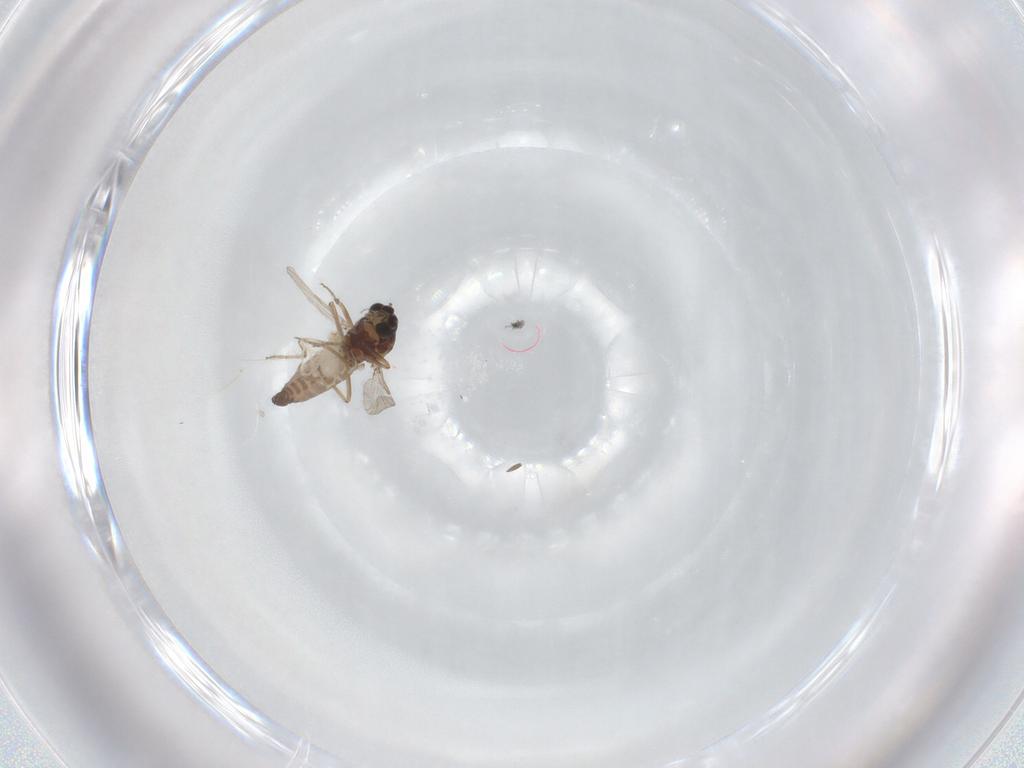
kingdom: Animalia
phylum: Arthropoda
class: Insecta
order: Diptera
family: Ceratopogonidae
